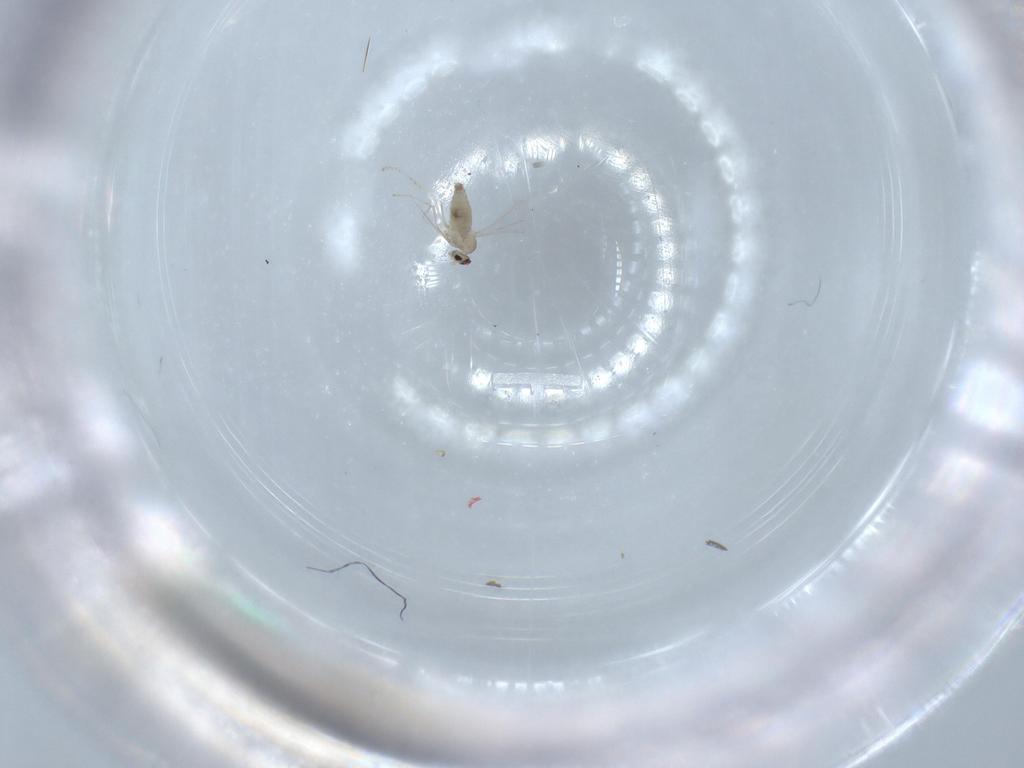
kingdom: Animalia
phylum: Arthropoda
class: Insecta
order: Diptera
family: Cecidomyiidae
